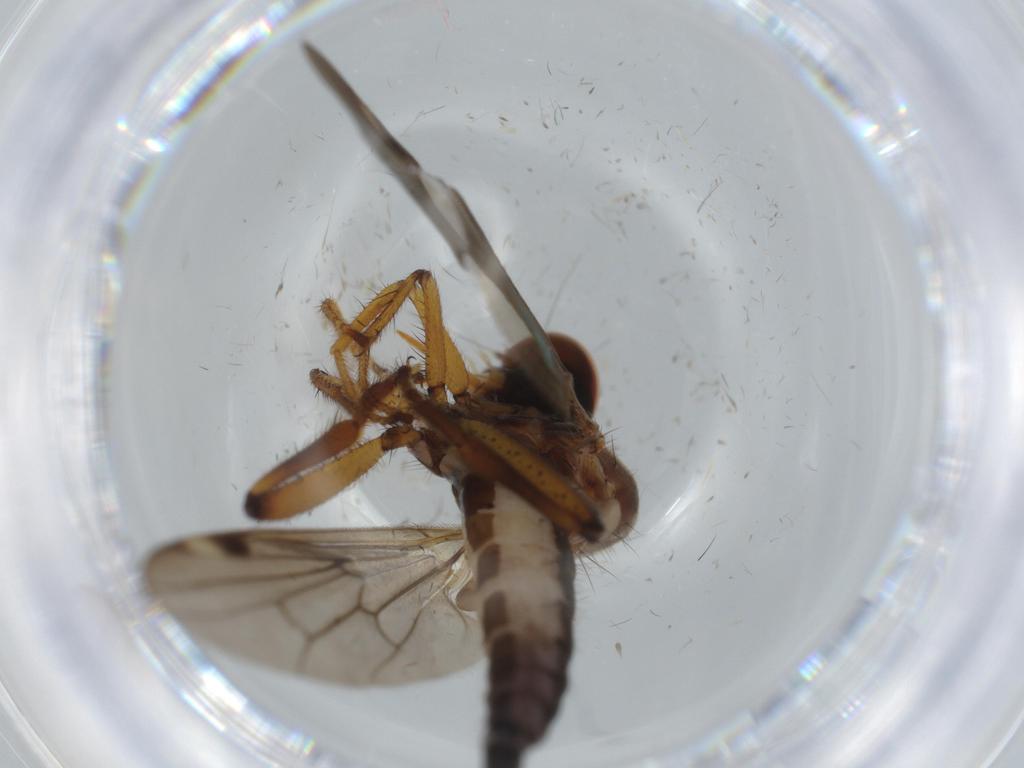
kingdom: Animalia
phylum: Arthropoda
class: Insecta
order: Diptera
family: Hybotidae
